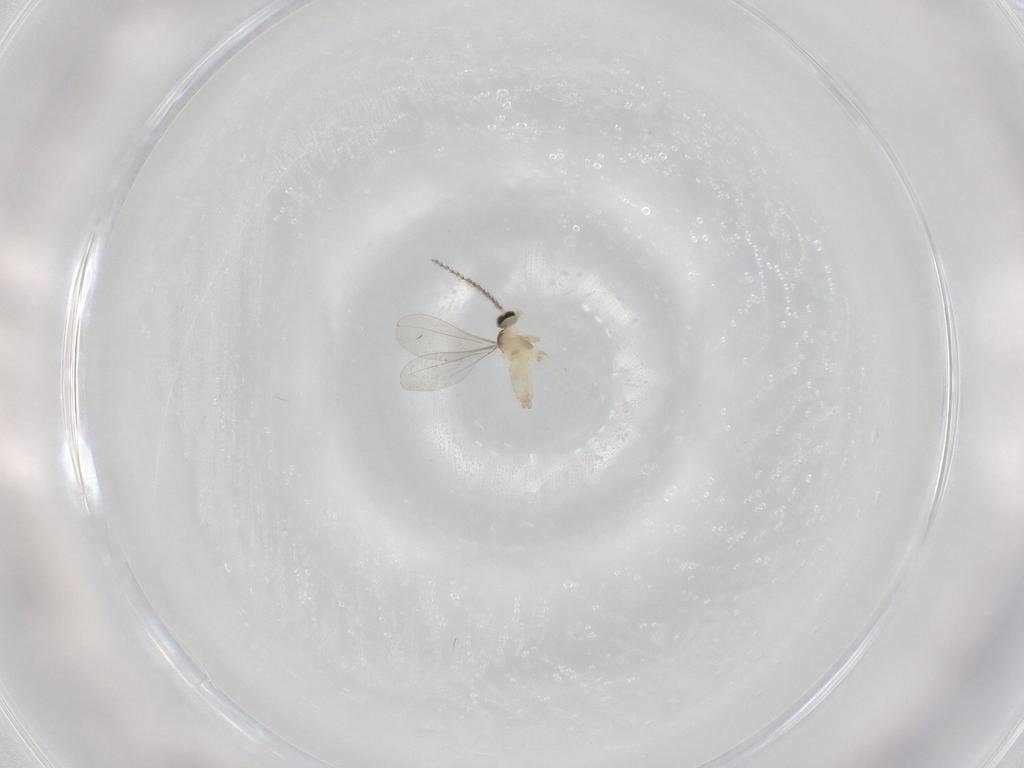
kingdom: Animalia
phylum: Arthropoda
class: Insecta
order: Diptera
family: Cecidomyiidae
